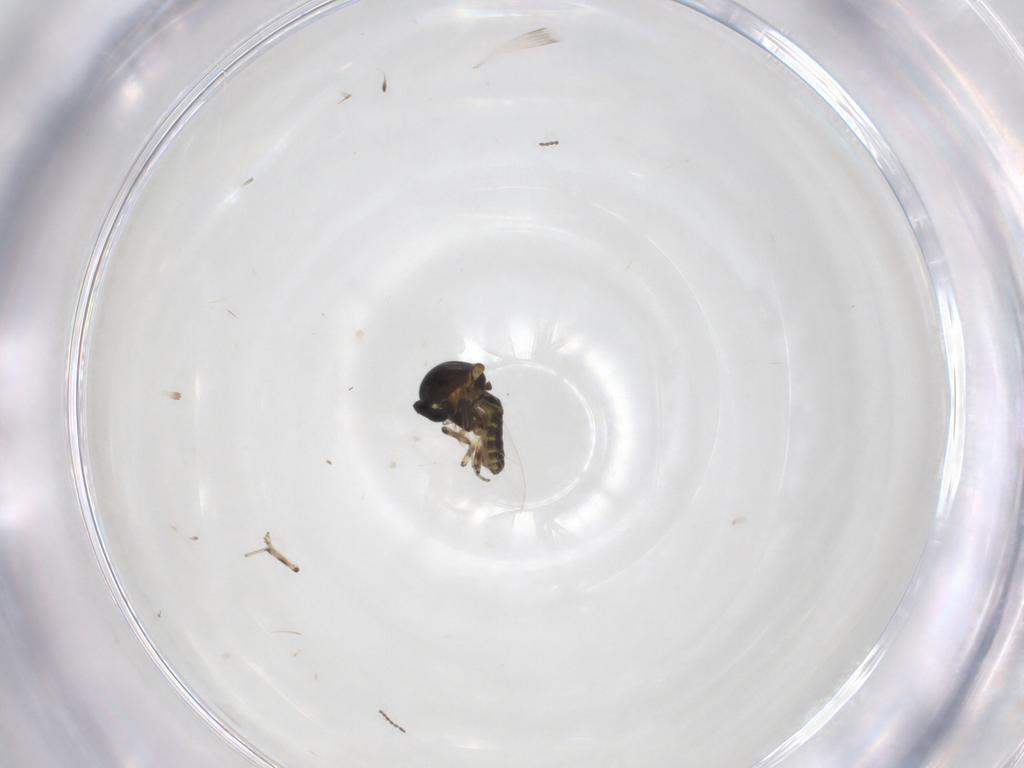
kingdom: Animalia
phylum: Arthropoda
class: Insecta
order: Diptera
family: Ceratopogonidae
